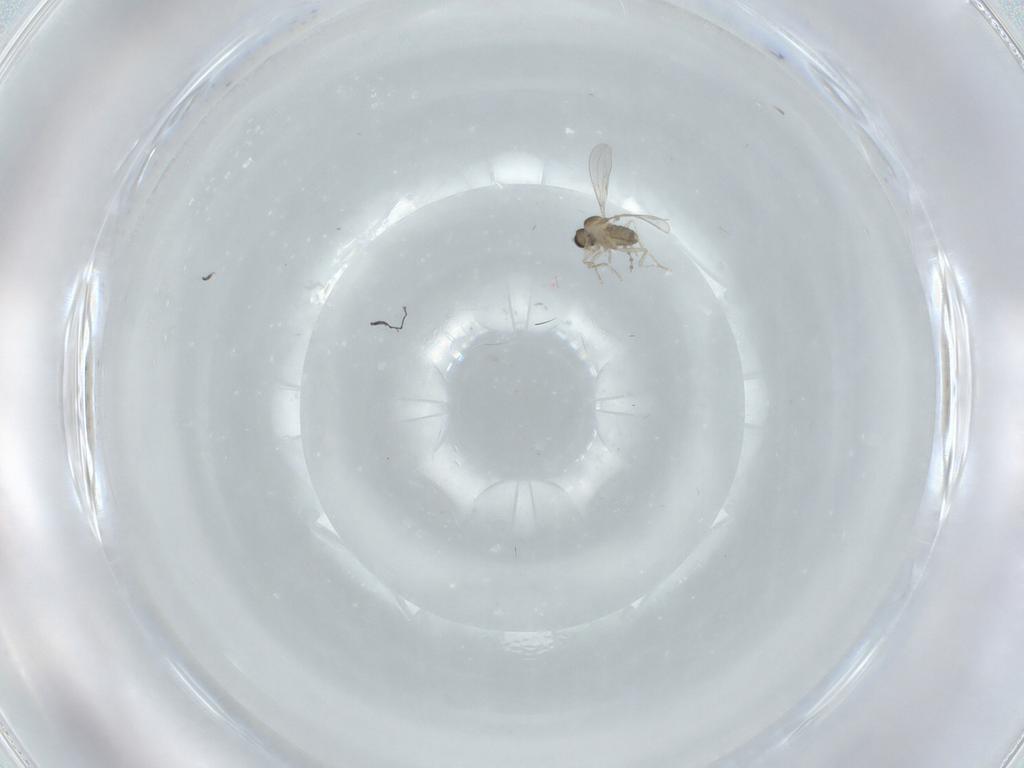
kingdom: Animalia
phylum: Arthropoda
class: Insecta
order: Diptera
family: Cecidomyiidae
